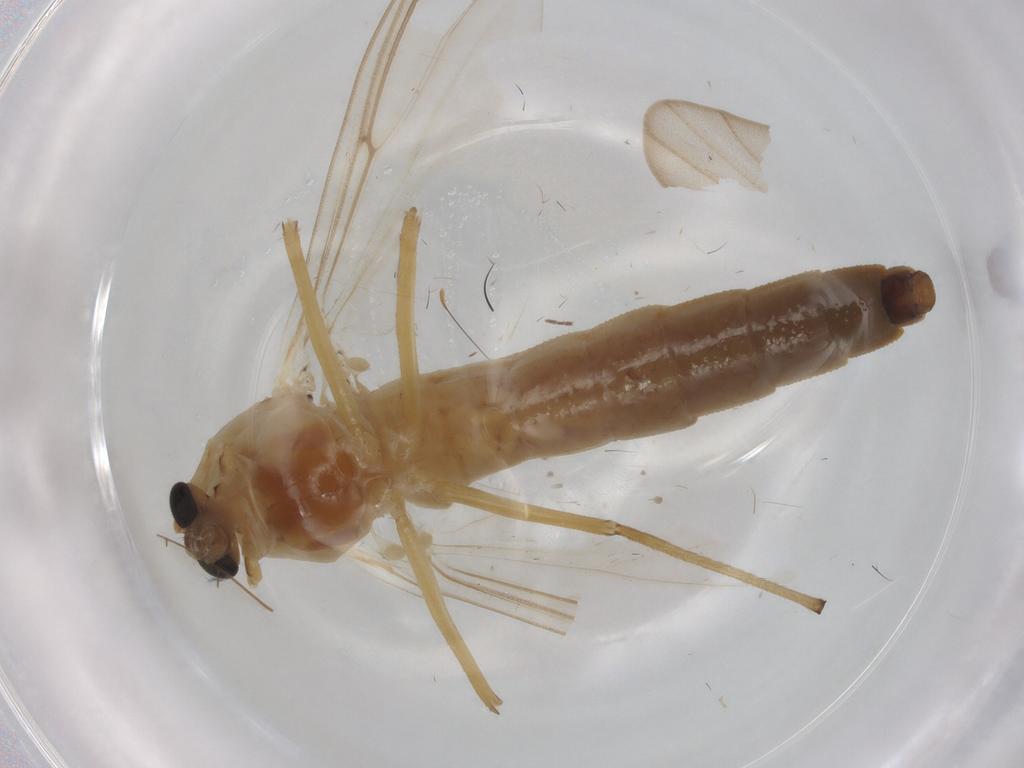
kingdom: Animalia
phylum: Arthropoda
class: Insecta
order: Diptera
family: Chironomidae
